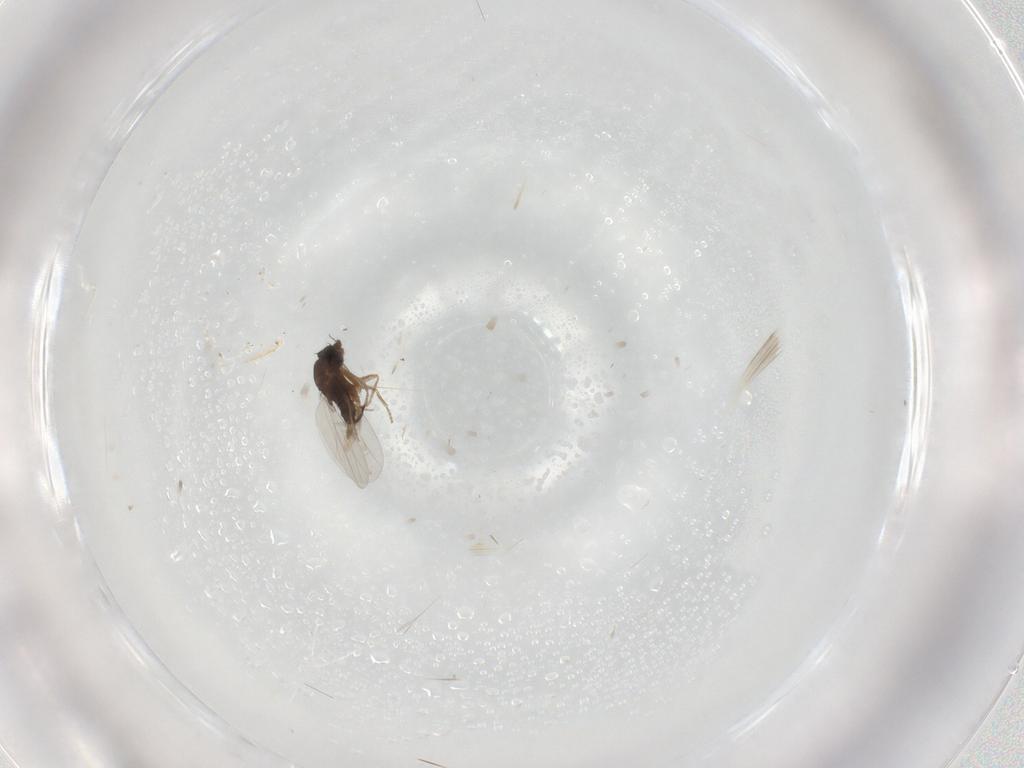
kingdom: Animalia
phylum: Arthropoda
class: Insecta
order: Diptera
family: Phoridae
